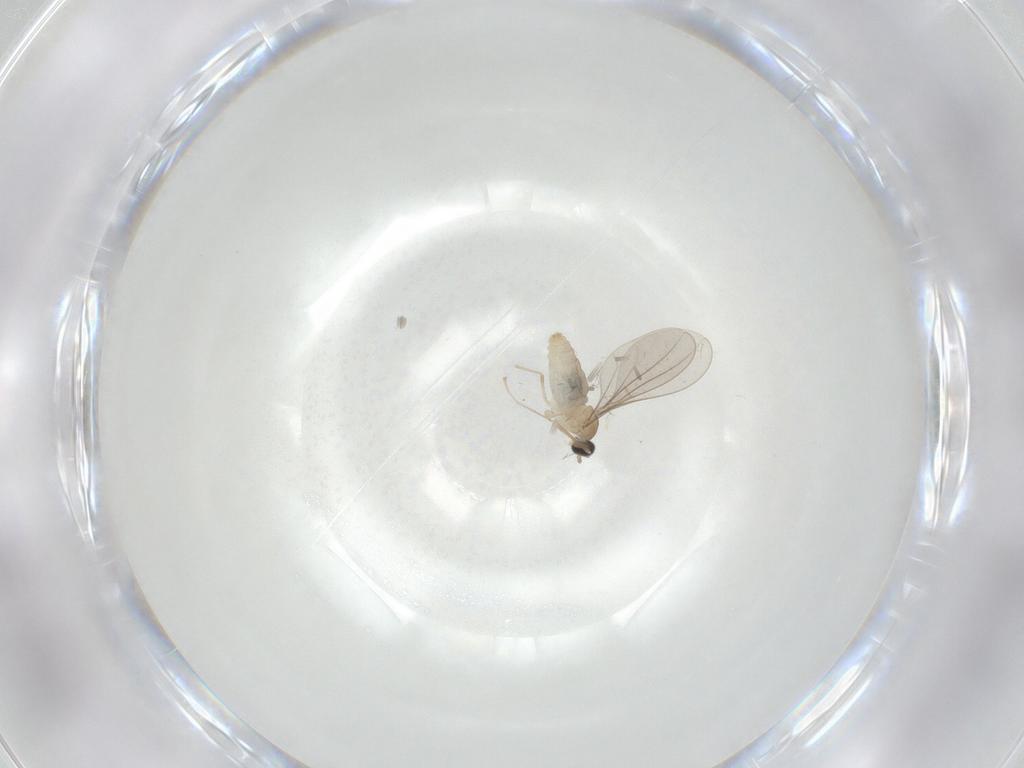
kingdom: Animalia
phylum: Arthropoda
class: Insecta
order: Diptera
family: Cecidomyiidae
